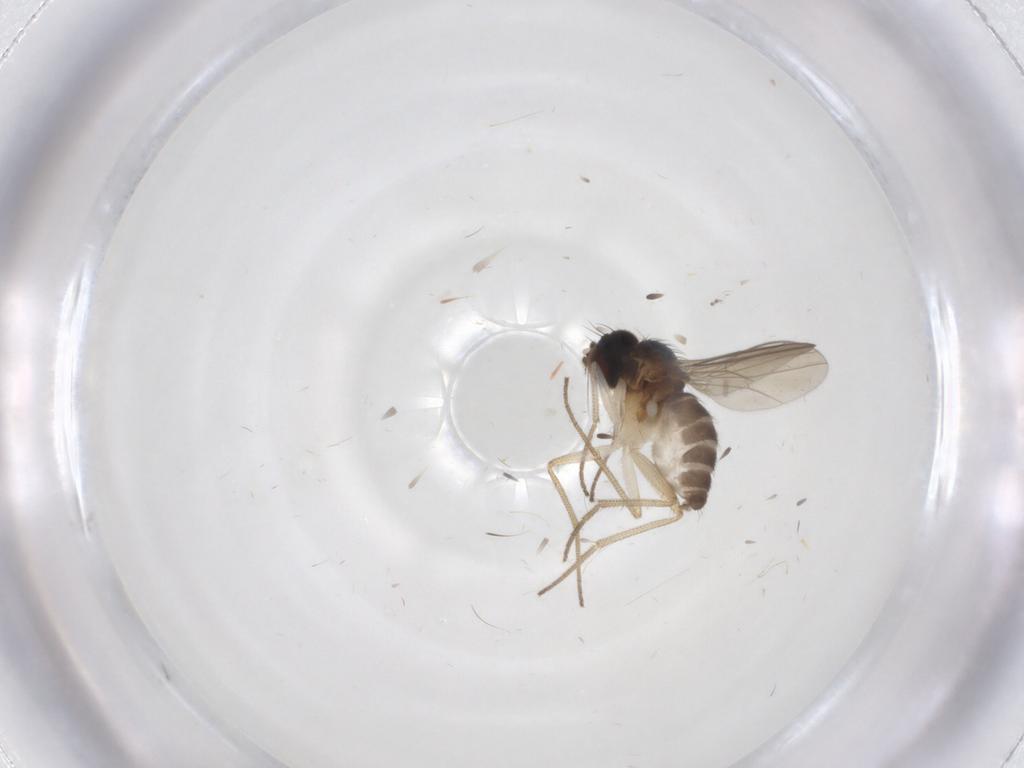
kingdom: Animalia
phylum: Arthropoda
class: Insecta
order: Diptera
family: Dolichopodidae
